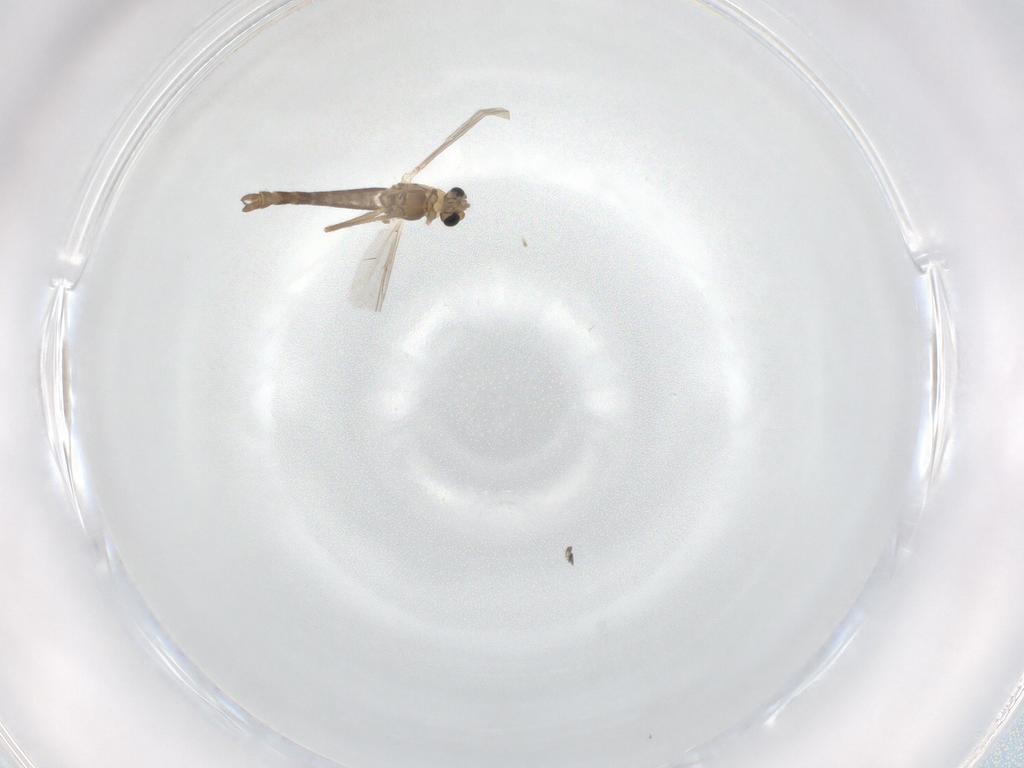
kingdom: Animalia
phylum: Arthropoda
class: Insecta
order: Diptera
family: Chironomidae
